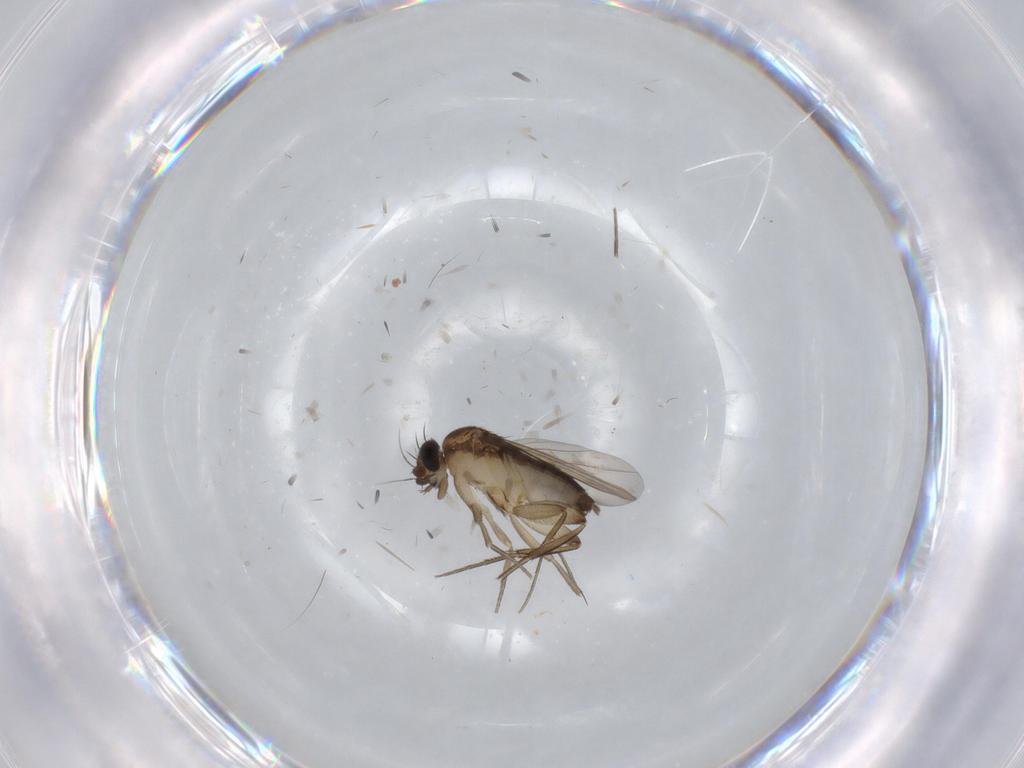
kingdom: Animalia
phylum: Arthropoda
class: Insecta
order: Diptera
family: Phoridae
